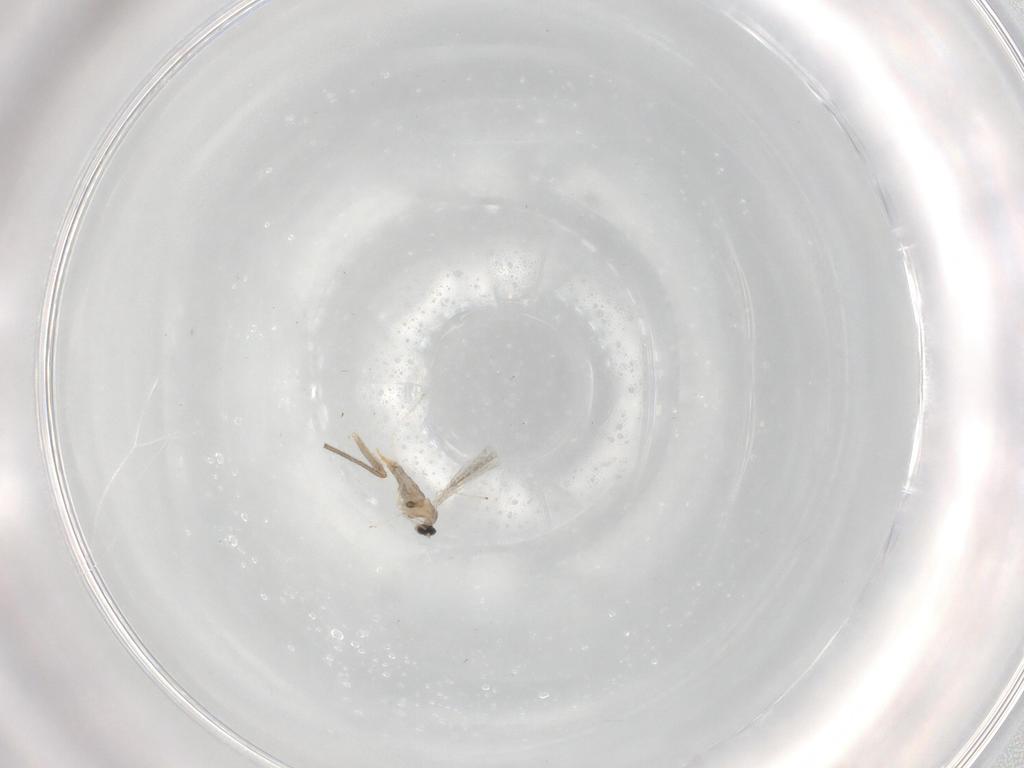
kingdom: Animalia
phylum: Arthropoda
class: Insecta
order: Diptera
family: Cecidomyiidae
